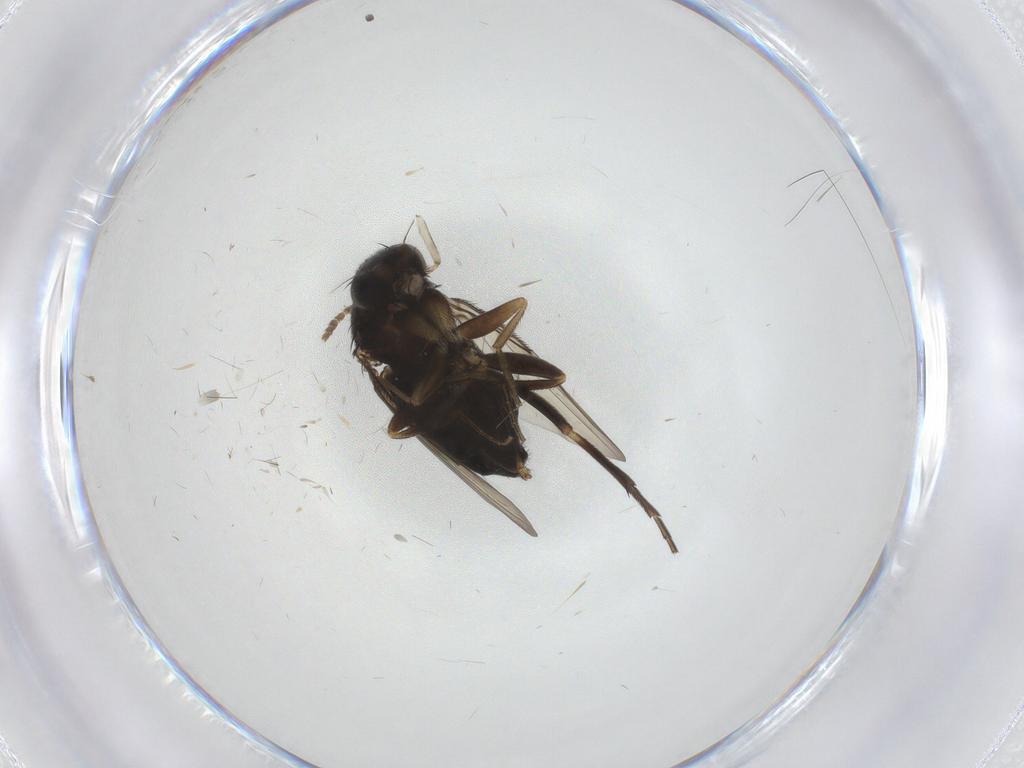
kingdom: Animalia
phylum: Arthropoda
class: Insecta
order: Diptera
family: Phoridae
